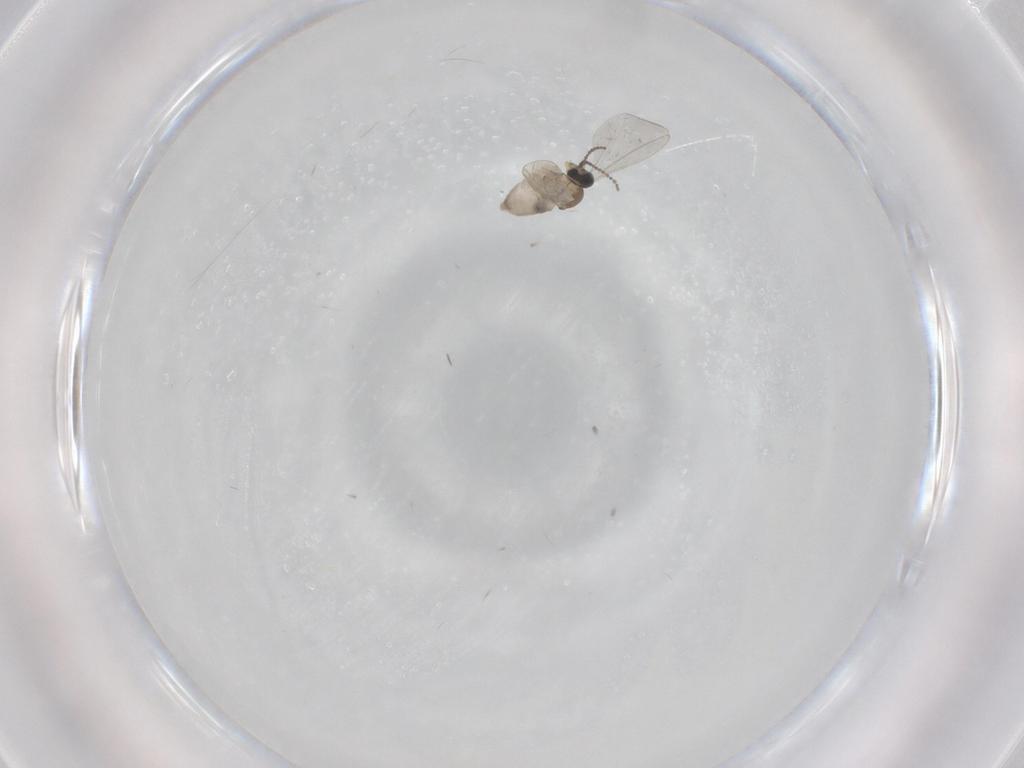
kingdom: Animalia
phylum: Arthropoda
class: Insecta
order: Diptera
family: Cecidomyiidae
